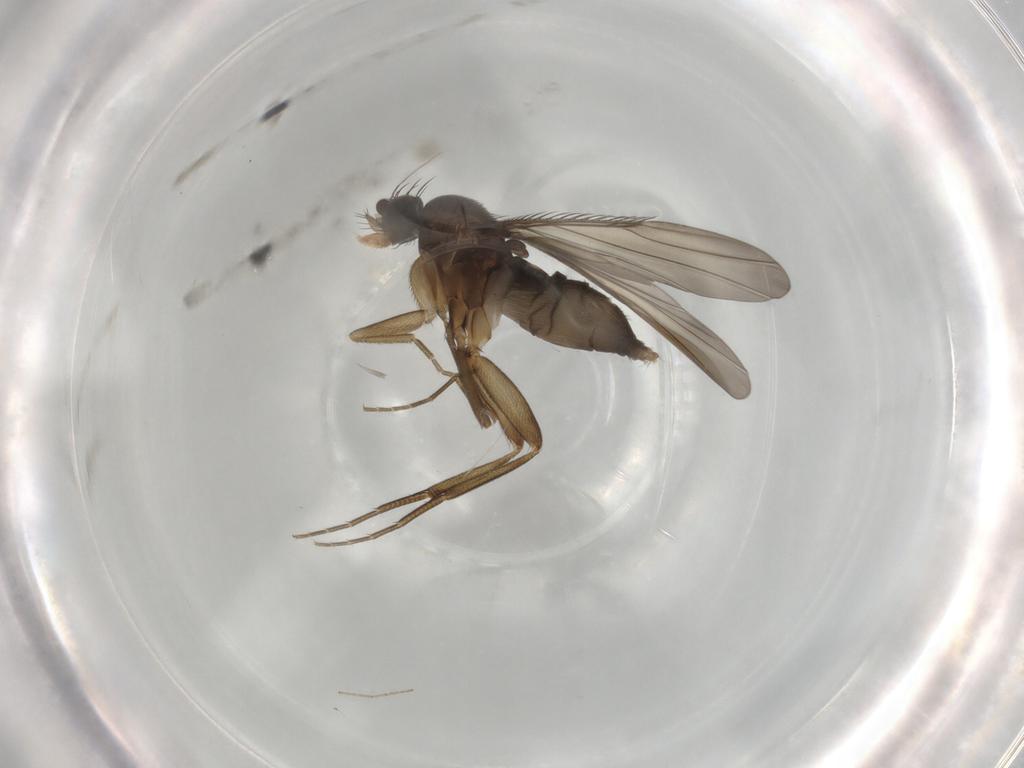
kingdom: Animalia
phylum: Arthropoda
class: Insecta
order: Diptera
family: Phoridae
